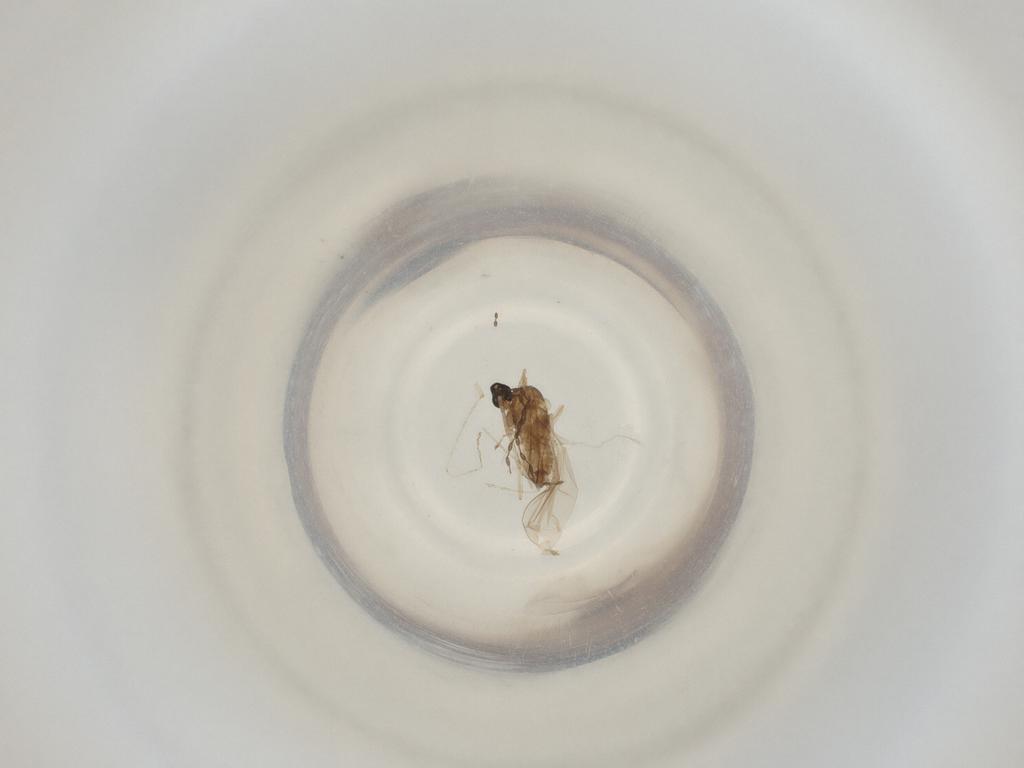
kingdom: Animalia
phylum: Arthropoda
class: Insecta
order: Diptera
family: Cecidomyiidae
